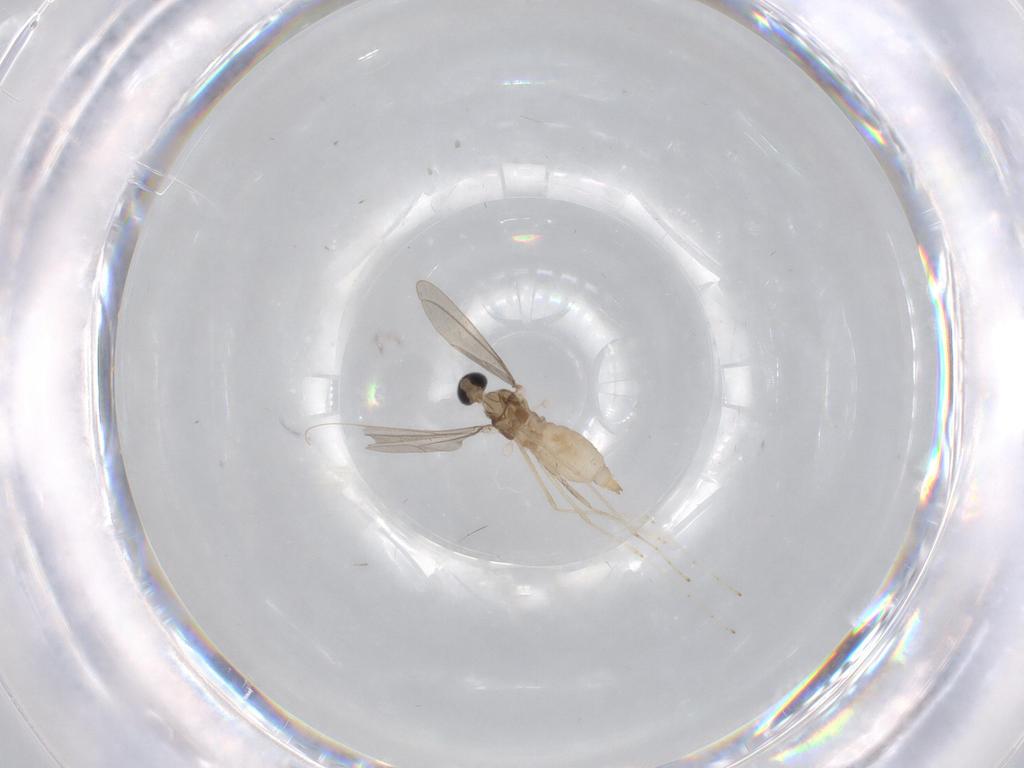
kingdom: Animalia
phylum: Arthropoda
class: Insecta
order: Diptera
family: Cecidomyiidae
